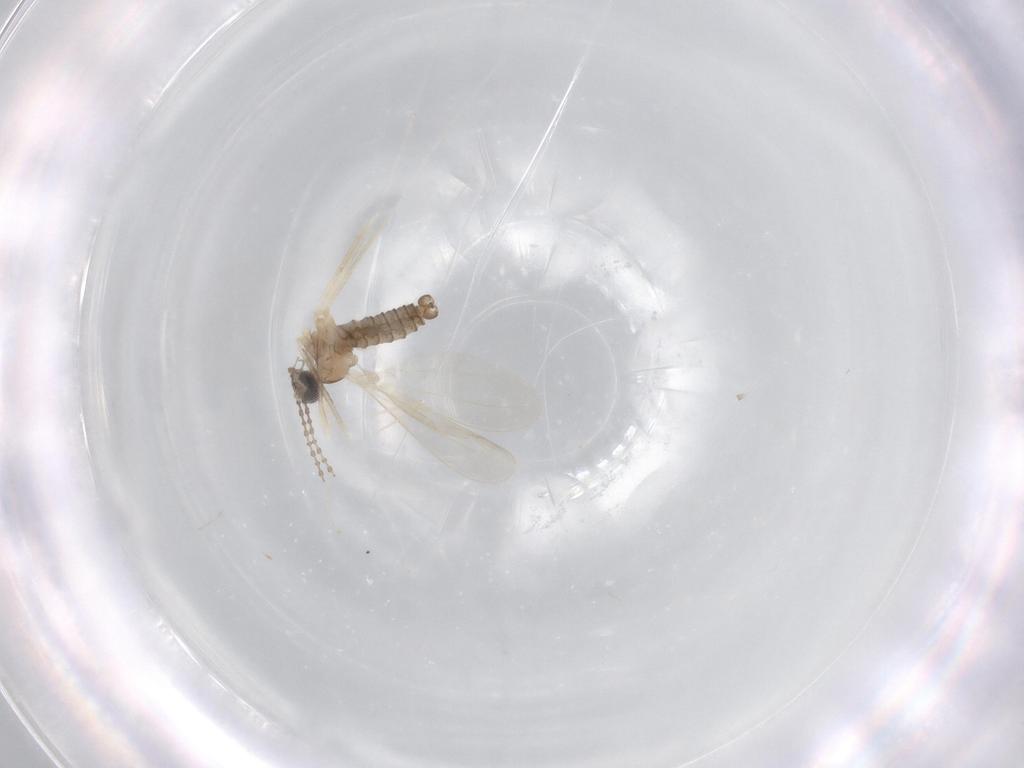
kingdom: Animalia
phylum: Arthropoda
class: Insecta
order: Diptera
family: Cecidomyiidae
